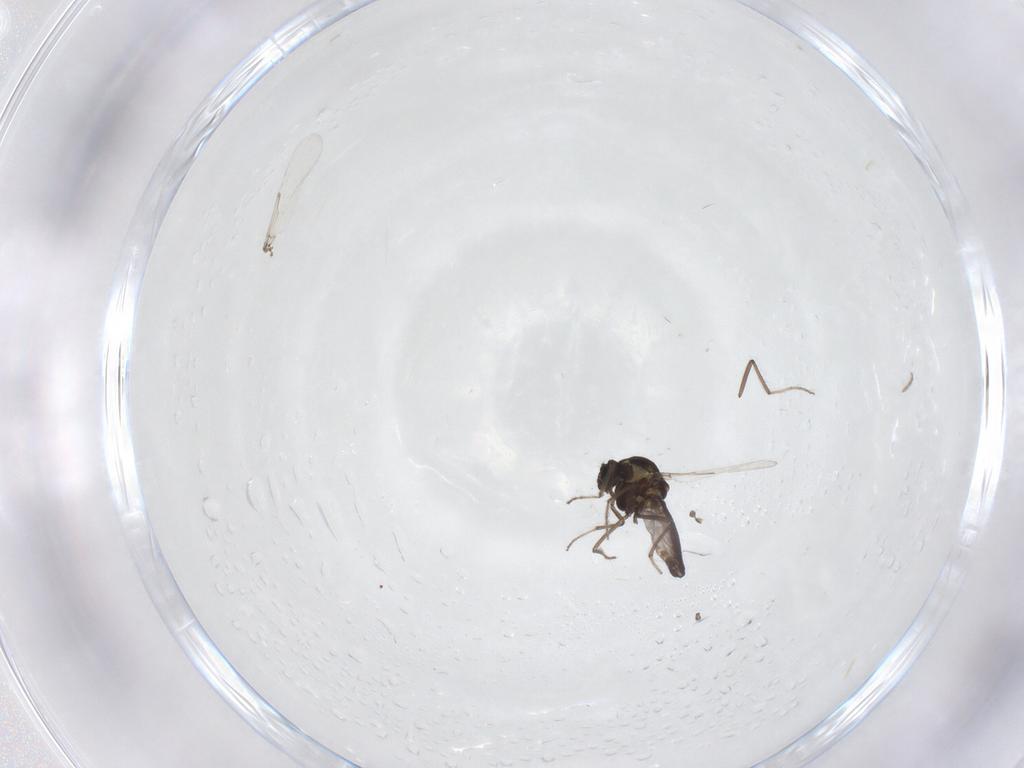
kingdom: Animalia
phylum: Arthropoda
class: Insecta
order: Diptera
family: Ceratopogonidae
